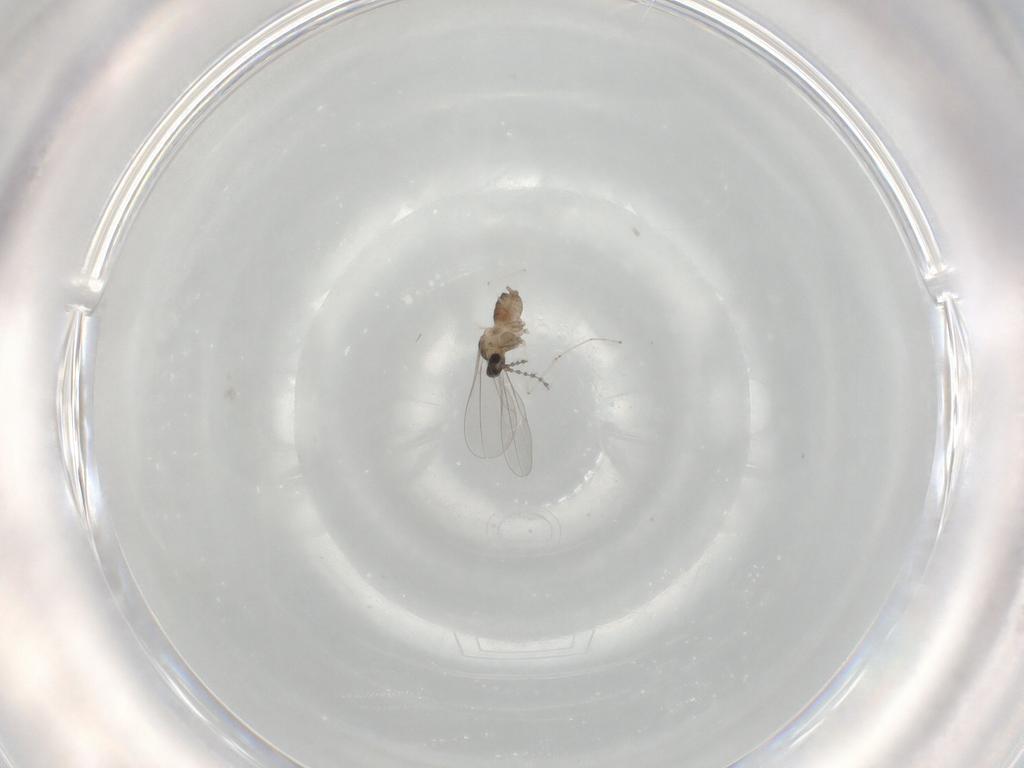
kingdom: Animalia
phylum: Arthropoda
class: Insecta
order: Diptera
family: Cecidomyiidae
